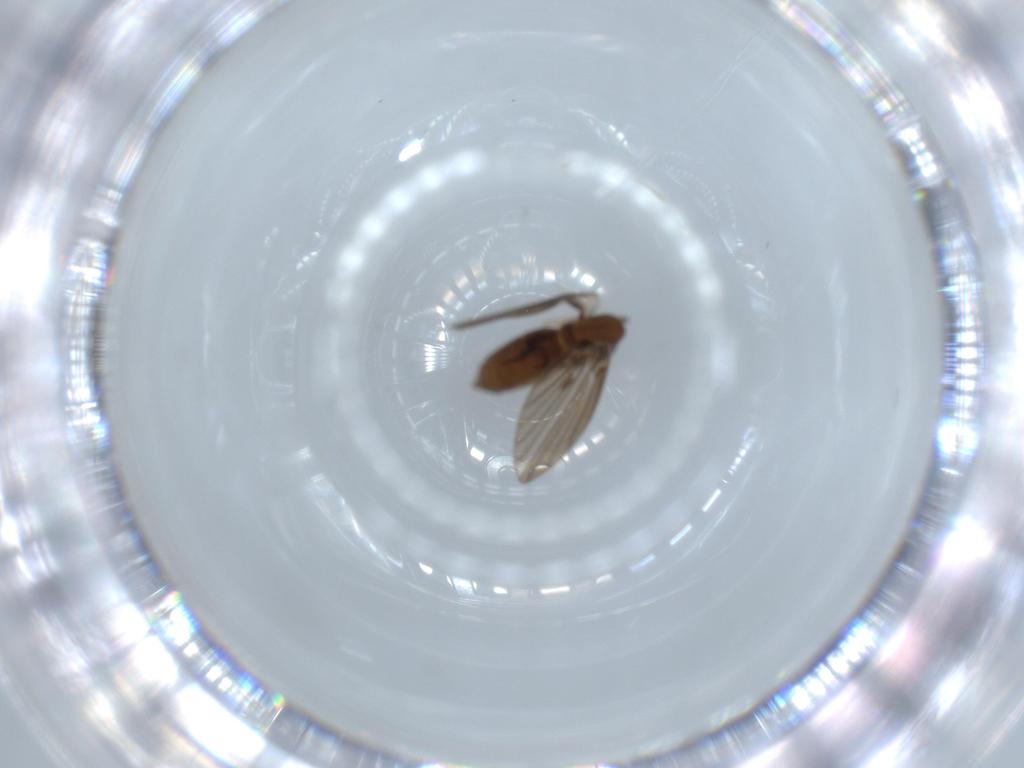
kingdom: Animalia
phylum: Arthropoda
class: Insecta
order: Diptera
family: Psychodidae
